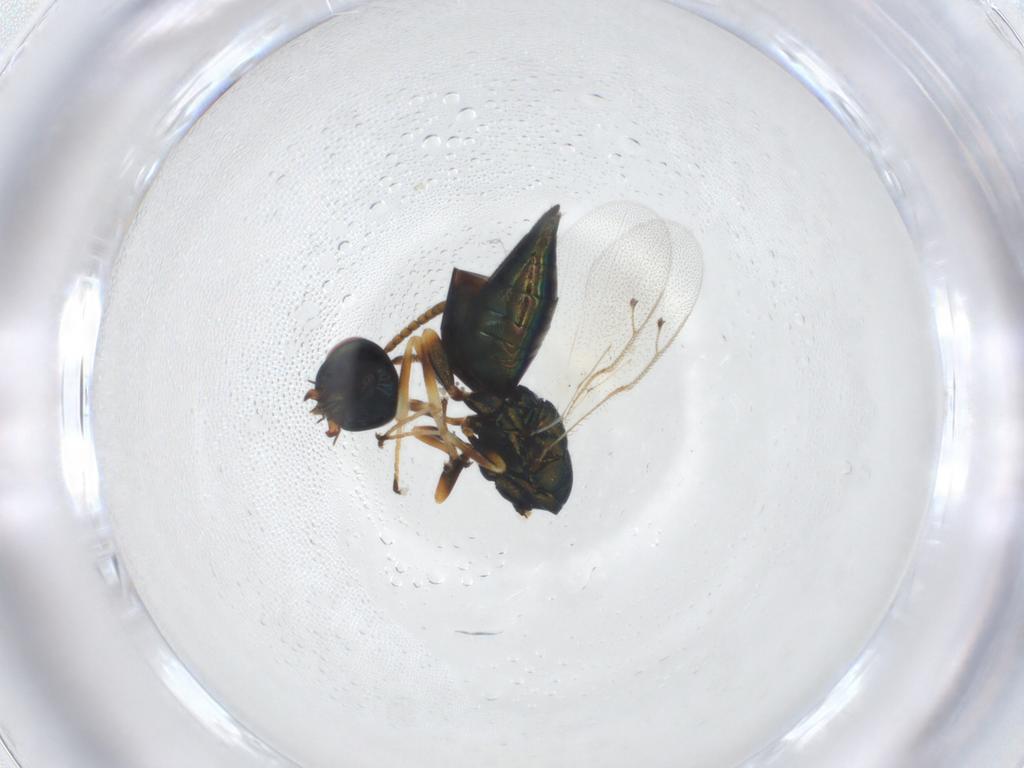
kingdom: Animalia
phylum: Arthropoda
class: Insecta
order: Hymenoptera
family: Pteromalidae
